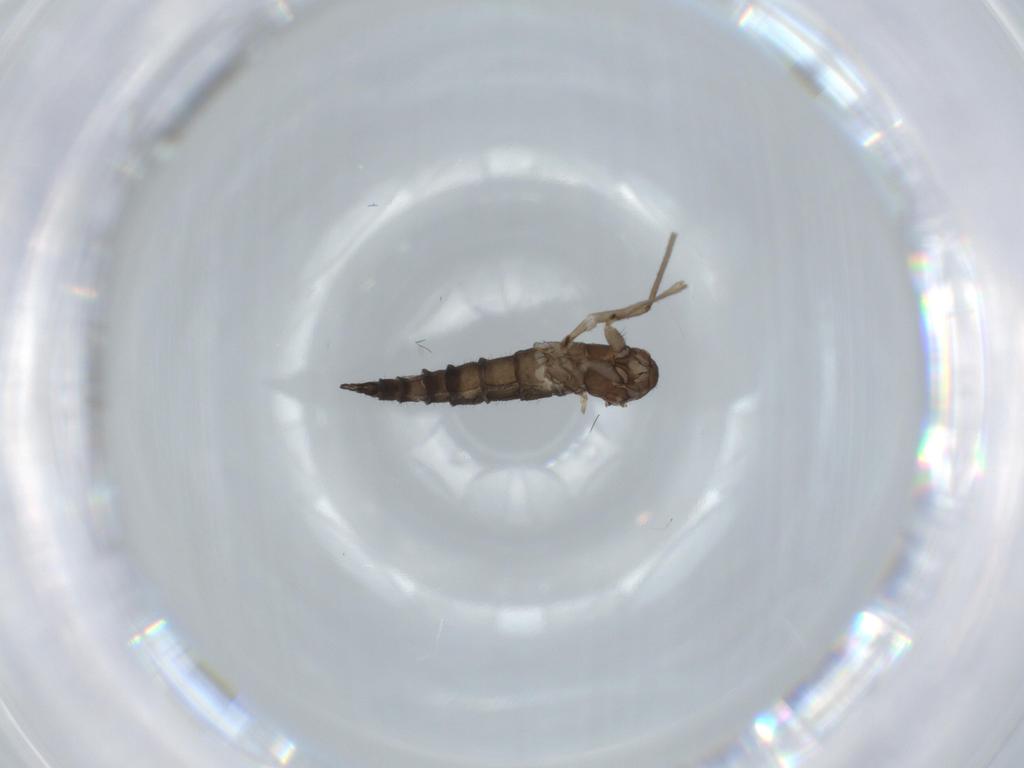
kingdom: Animalia
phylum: Arthropoda
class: Insecta
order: Diptera
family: Sciaridae
